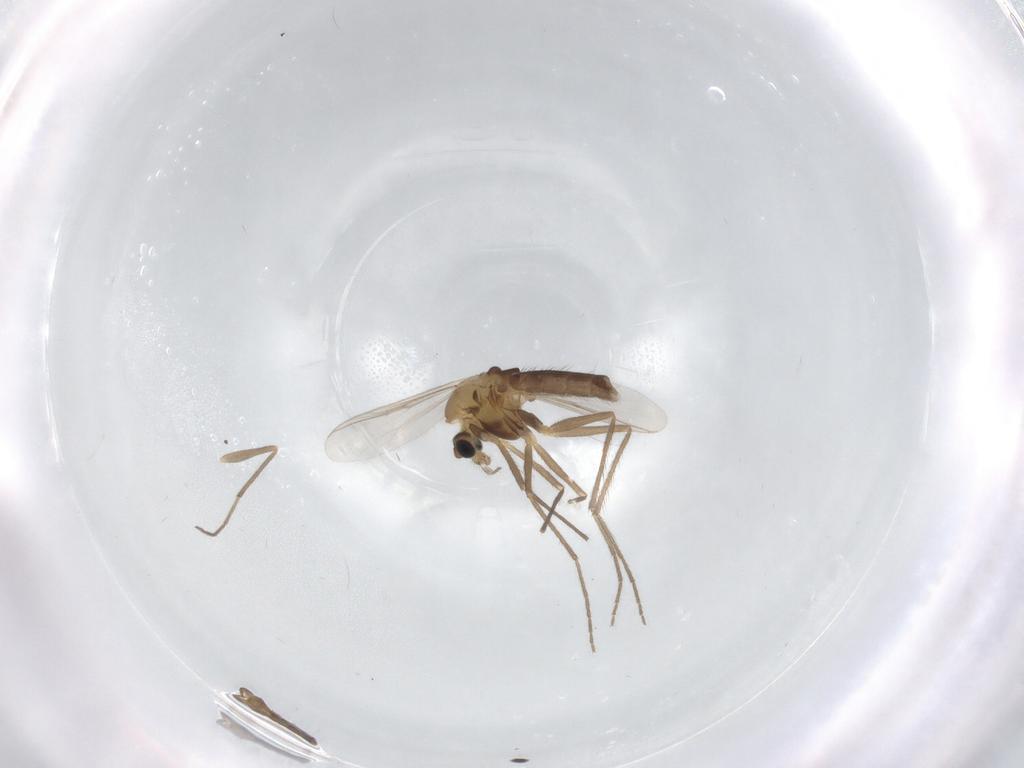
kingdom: Animalia
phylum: Arthropoda
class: Insecta
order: Diptera
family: Chironomidae
